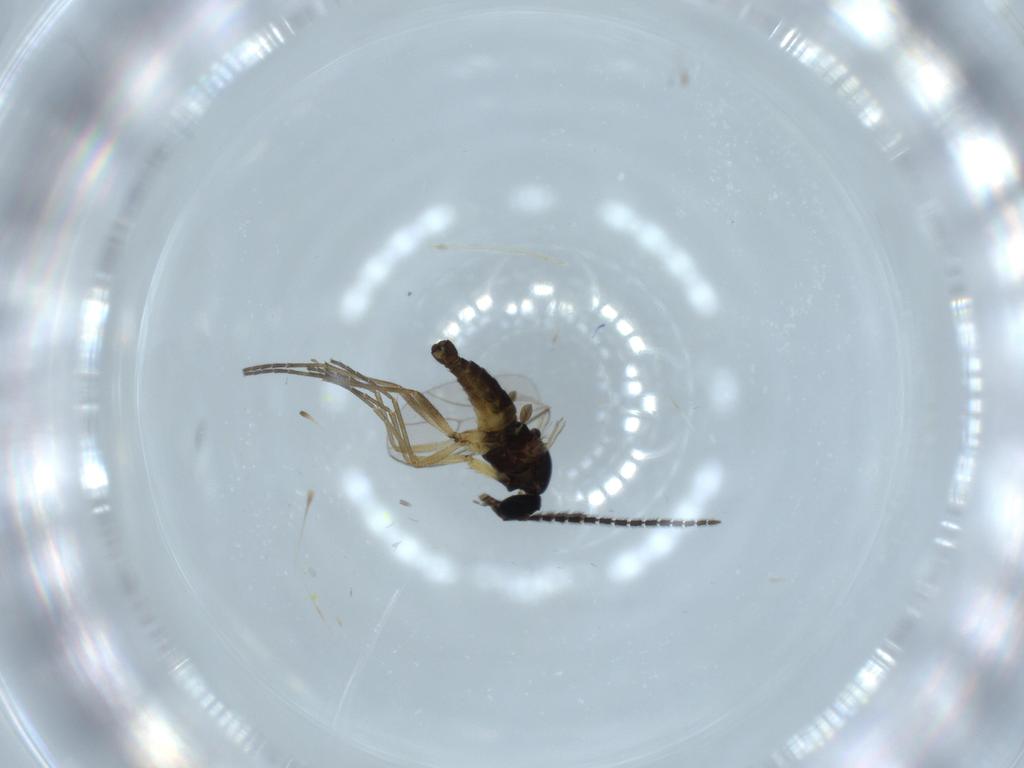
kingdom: Animalia
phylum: Arthropoda
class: Insecta
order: Diptera
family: Sciaridae
